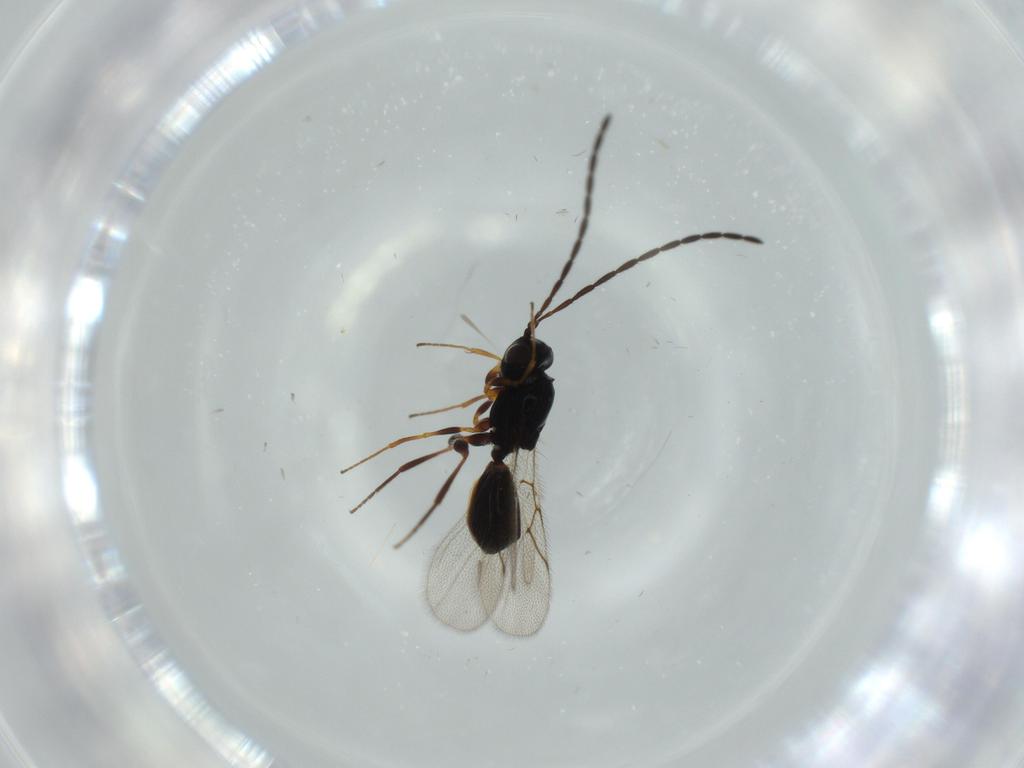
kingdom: Animalia
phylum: Arthropoda
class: Insecta
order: Hymenoptera
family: Figitidae
